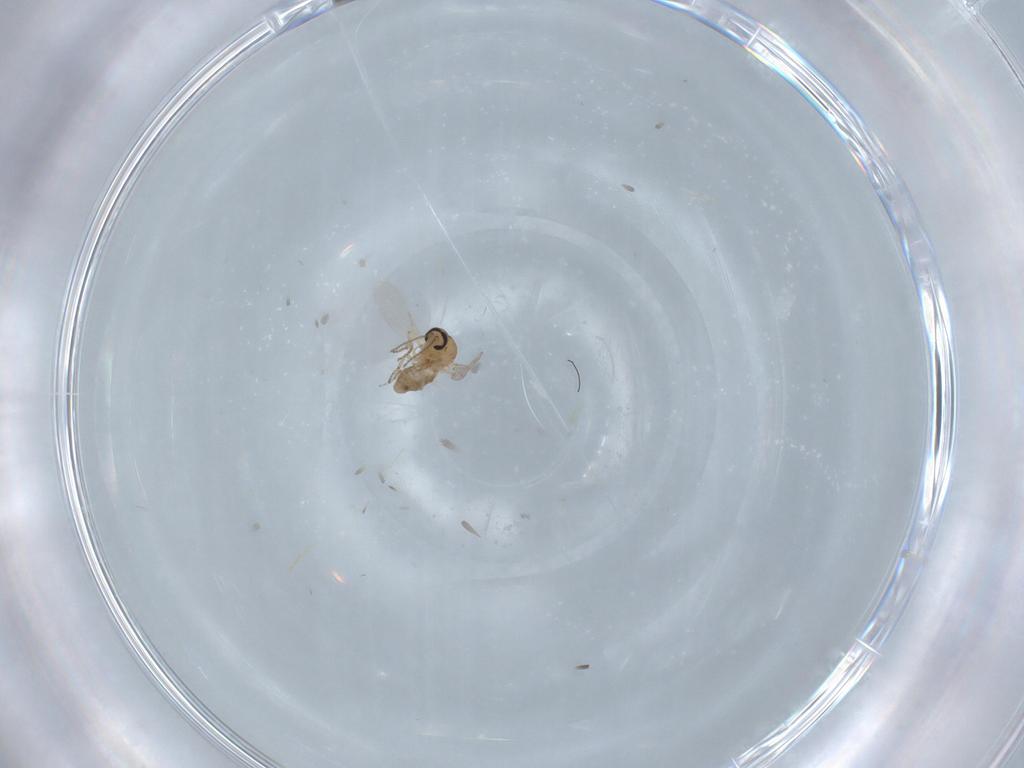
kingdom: Animalia
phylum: Arthropoda
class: Insecta
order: Diptera
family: Ceratopogonidae
